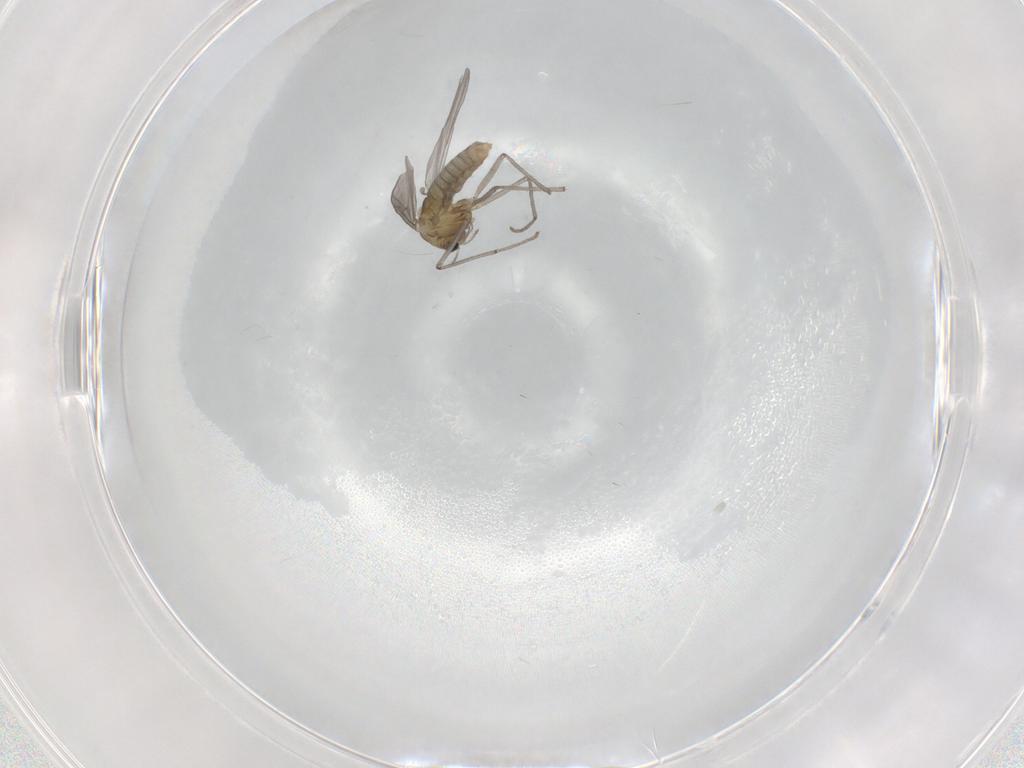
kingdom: Animalia
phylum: Arthropoda
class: Insecta
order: Diptera
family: Chironomidae
